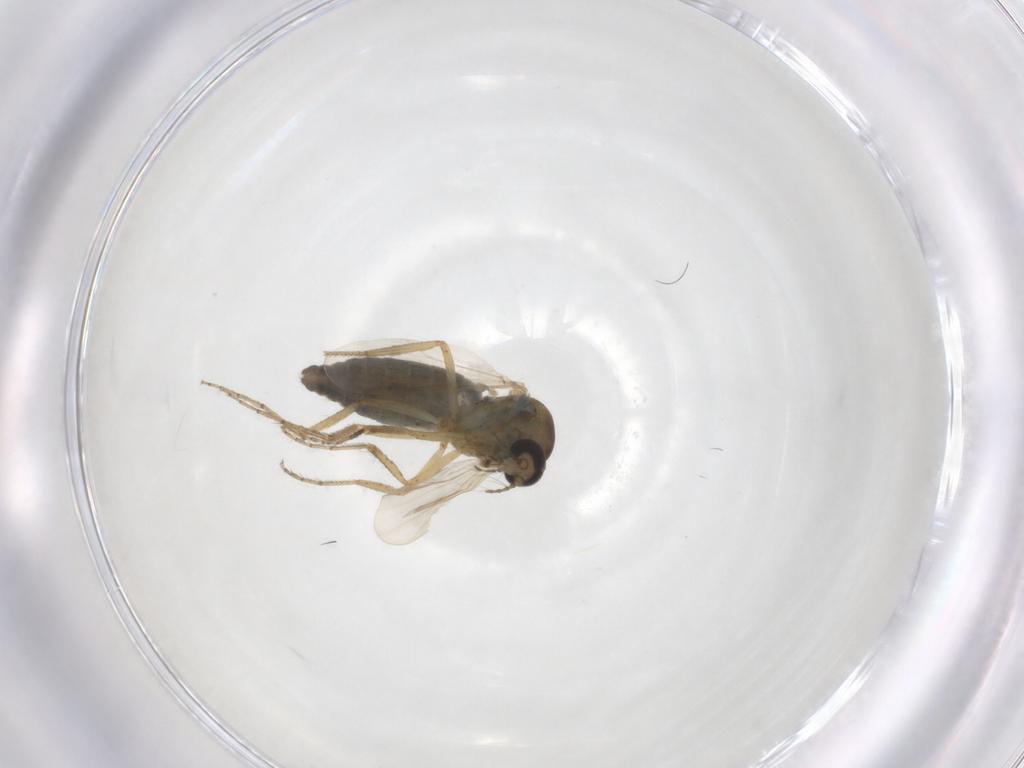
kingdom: Animalia
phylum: Arthropoda
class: Insecta
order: Diptera
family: Ceratopogonidae
